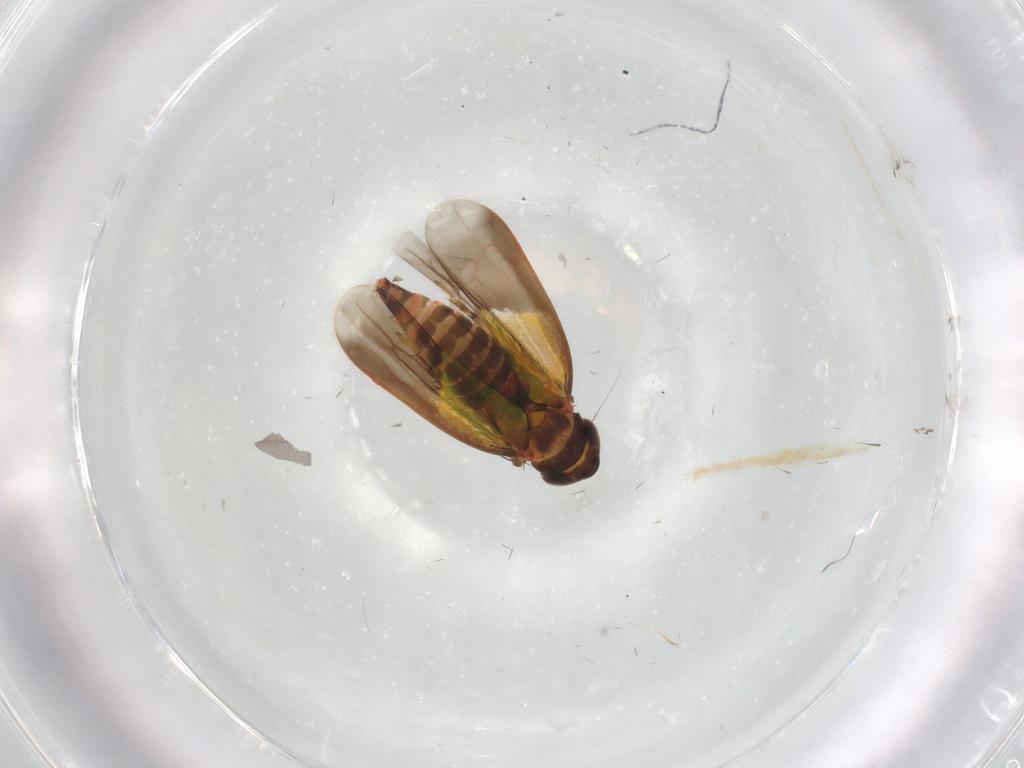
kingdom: Animalia
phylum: Arthropoda
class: Insecta
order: Hemiptera
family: Cicadellidae
